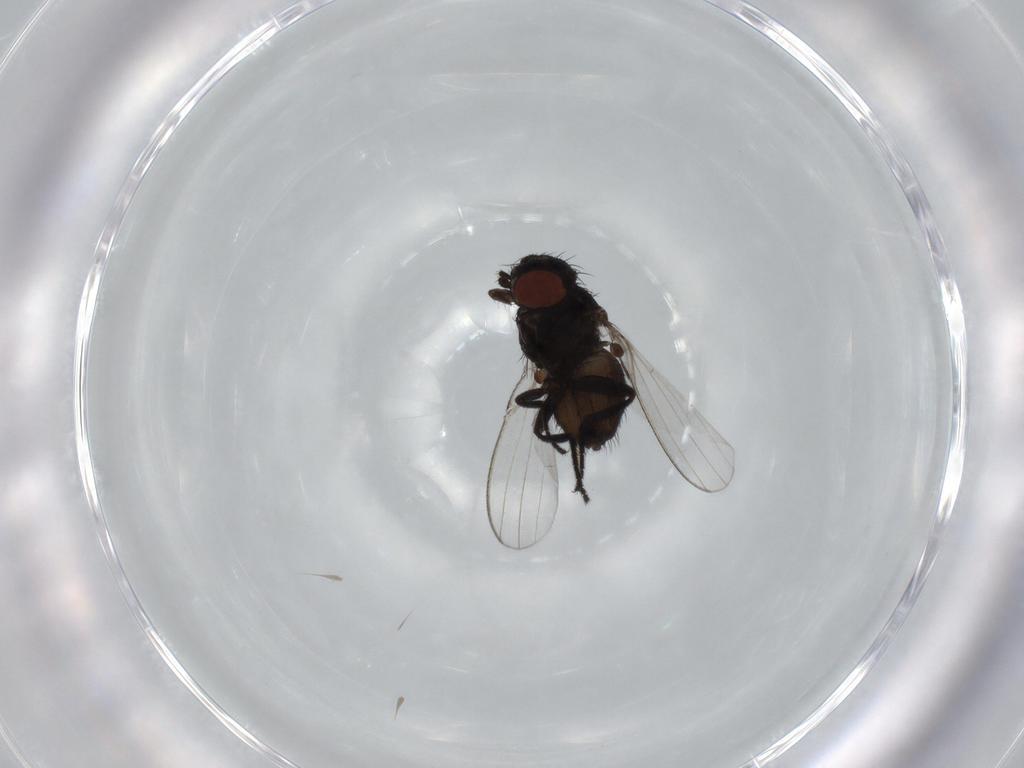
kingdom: Animalia
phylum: Arthropoda
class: Insecta
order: Diptera
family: Milichiidae
